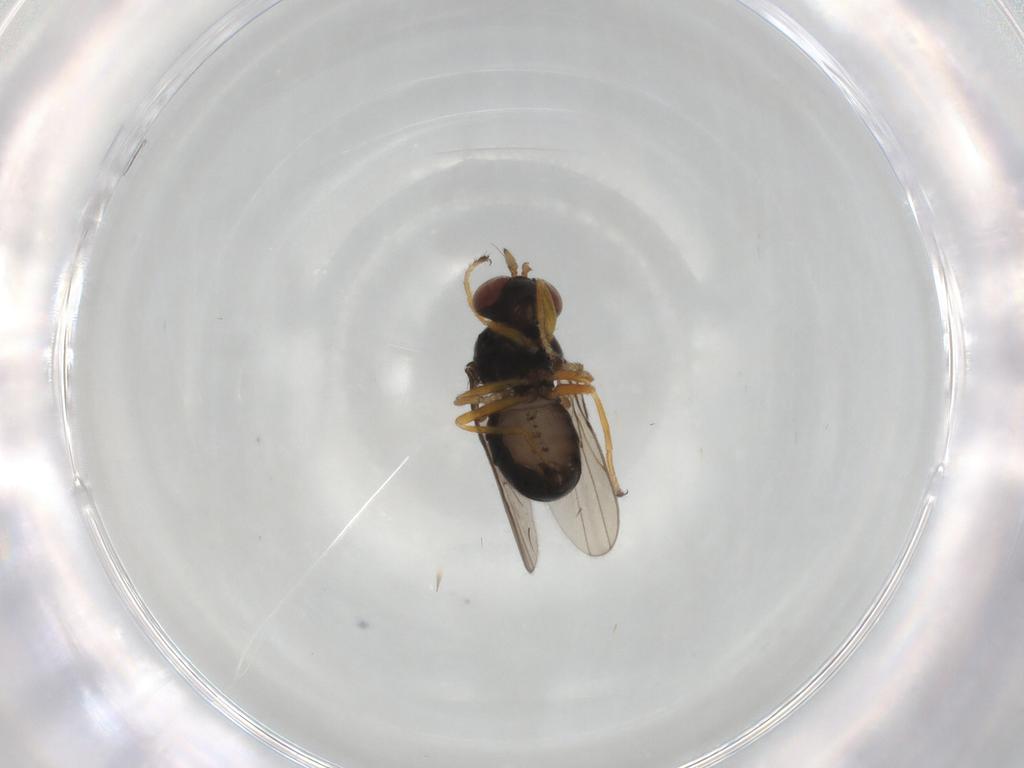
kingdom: Animalia
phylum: Arthropoda
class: Insecta
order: Diptera
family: Ephydridae
